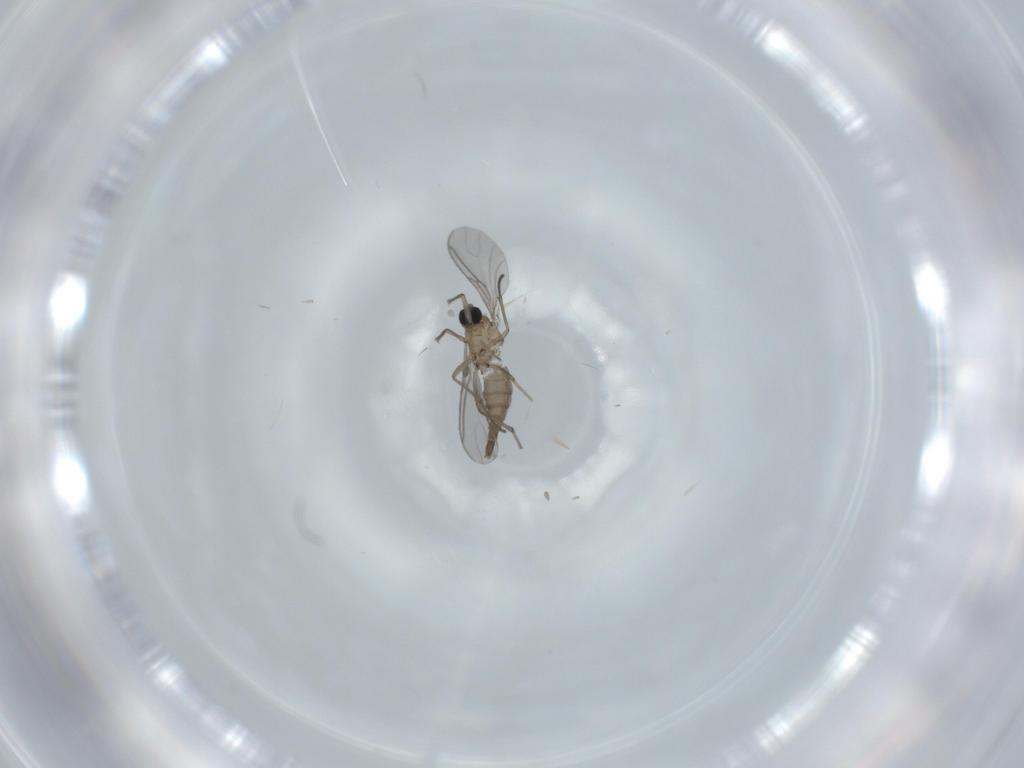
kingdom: Animalia
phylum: Arthropoda
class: Insecta
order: Diptera
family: Sciaridae
